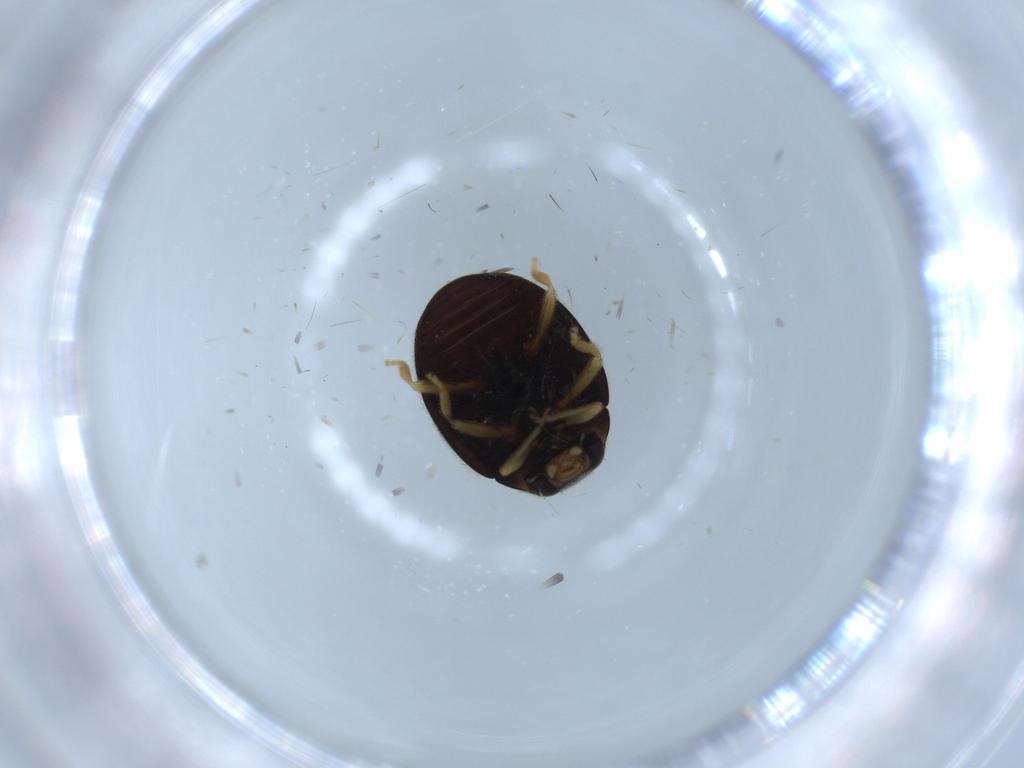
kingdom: Animalia
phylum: Arthropoda
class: Insecta
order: Coleoptera
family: Coccinellidae
